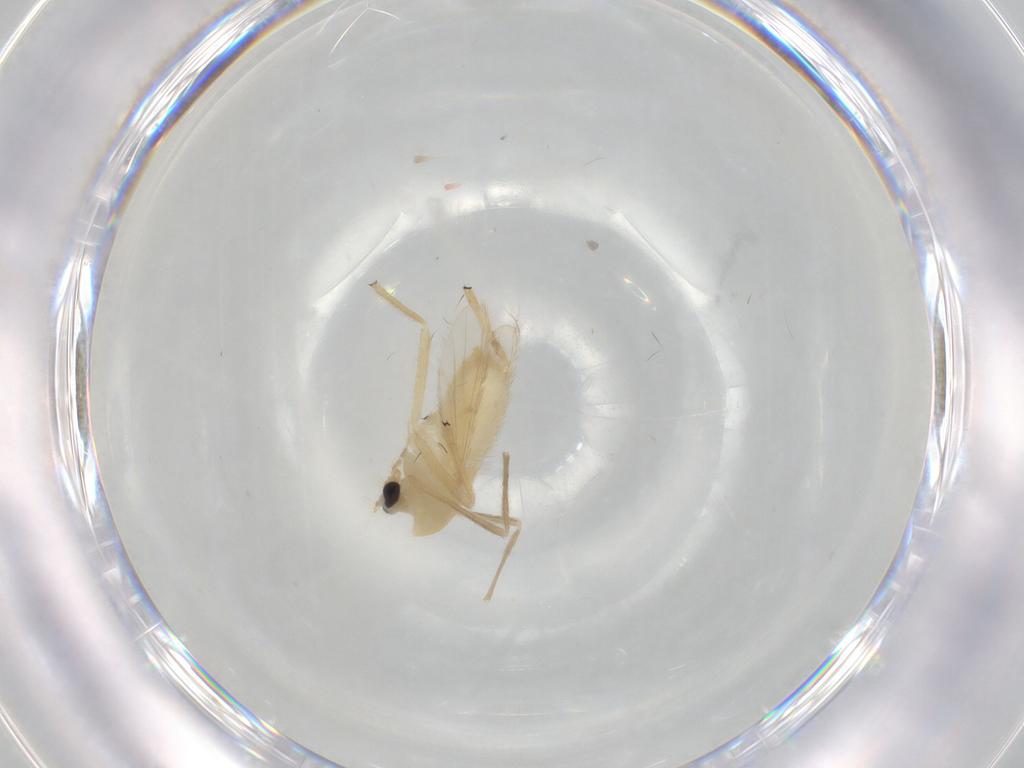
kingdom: Animalia
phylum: Arthropoda
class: Insecta
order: Diptera
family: Chironomidae
